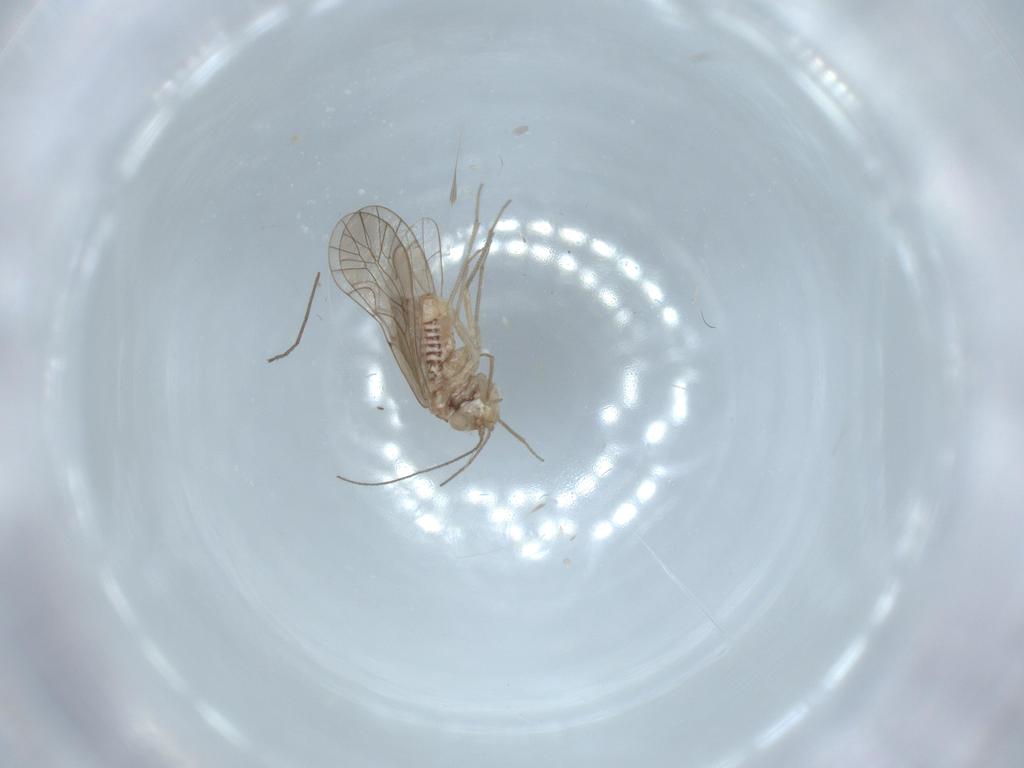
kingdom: Animalia
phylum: Arthropoda
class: Insecta
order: Psocodea
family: Lachesillidae
